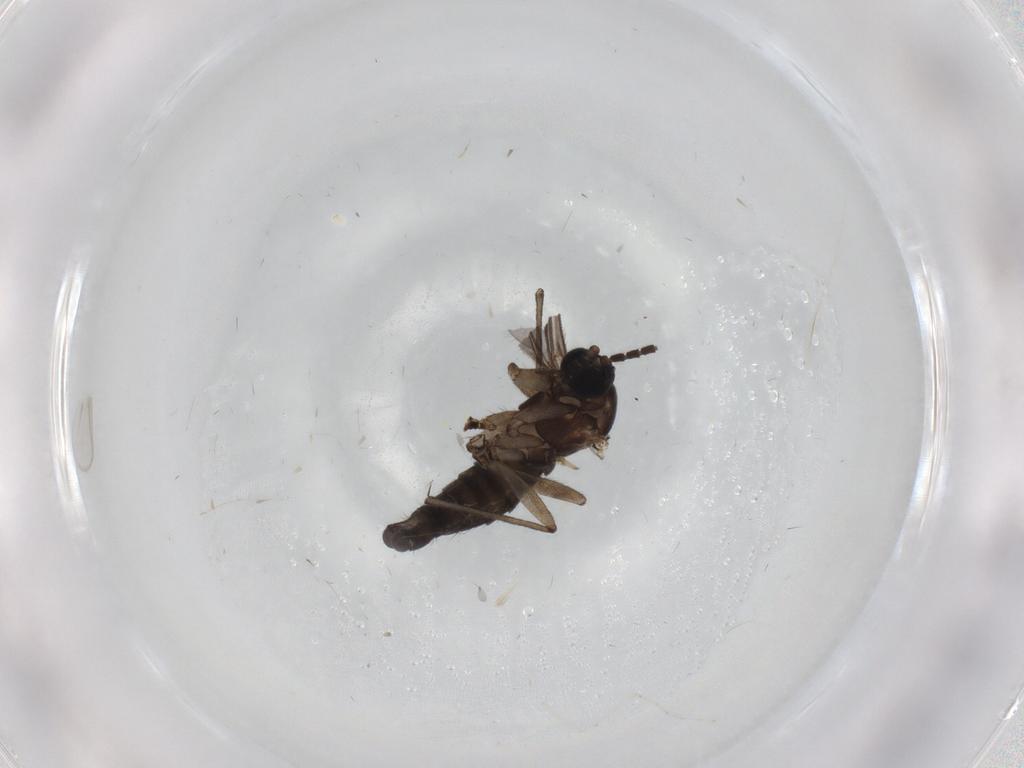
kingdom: Animalia
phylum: Arthropoda
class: Insecta
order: Diptera
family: Sciaridae
